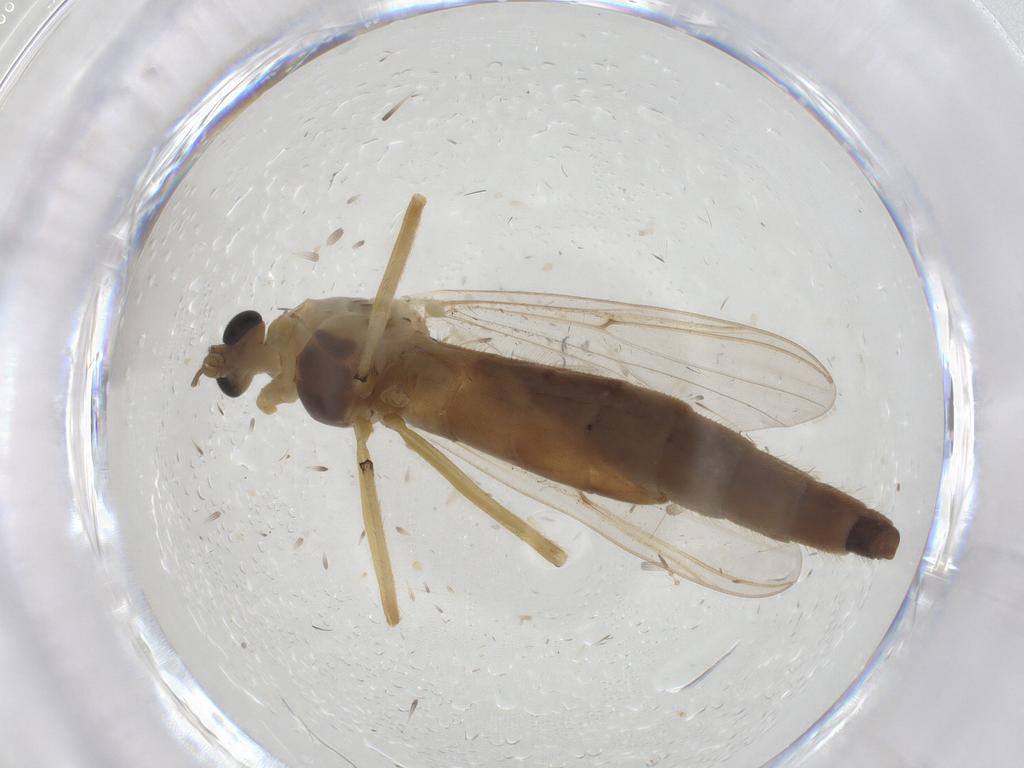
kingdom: Animalia
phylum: Arthropoda
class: Insecta
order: Diptera
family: Chironomidae
